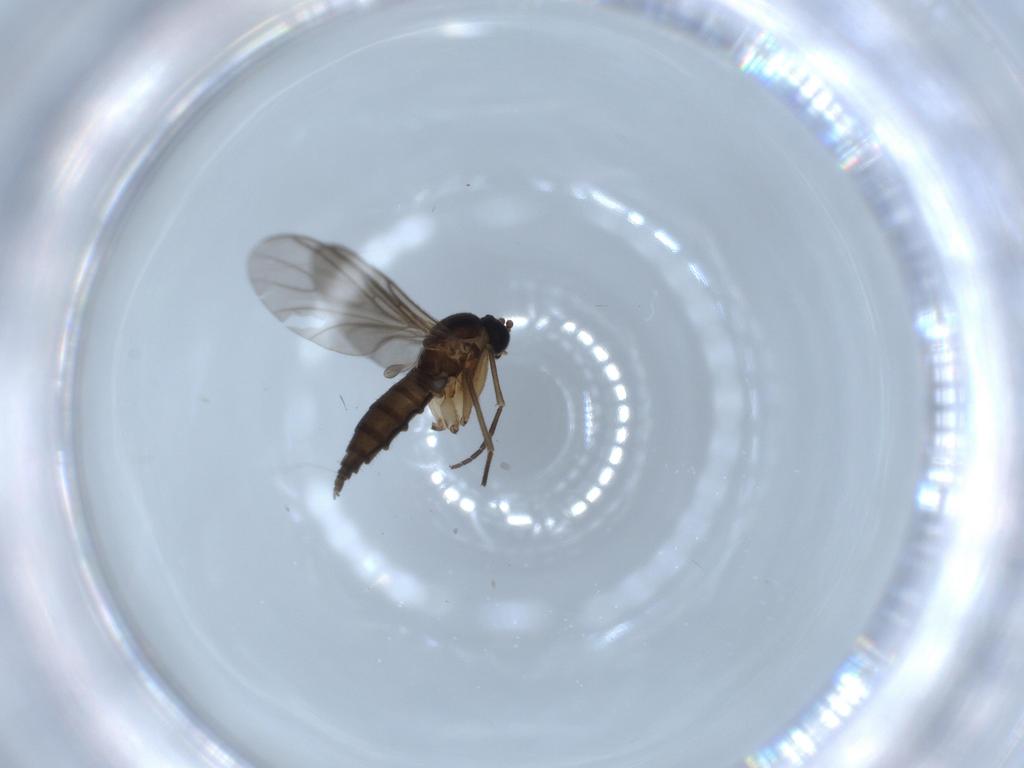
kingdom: Animalia
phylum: Arthropoda
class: Insecta
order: Diptera
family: Sciaridae
